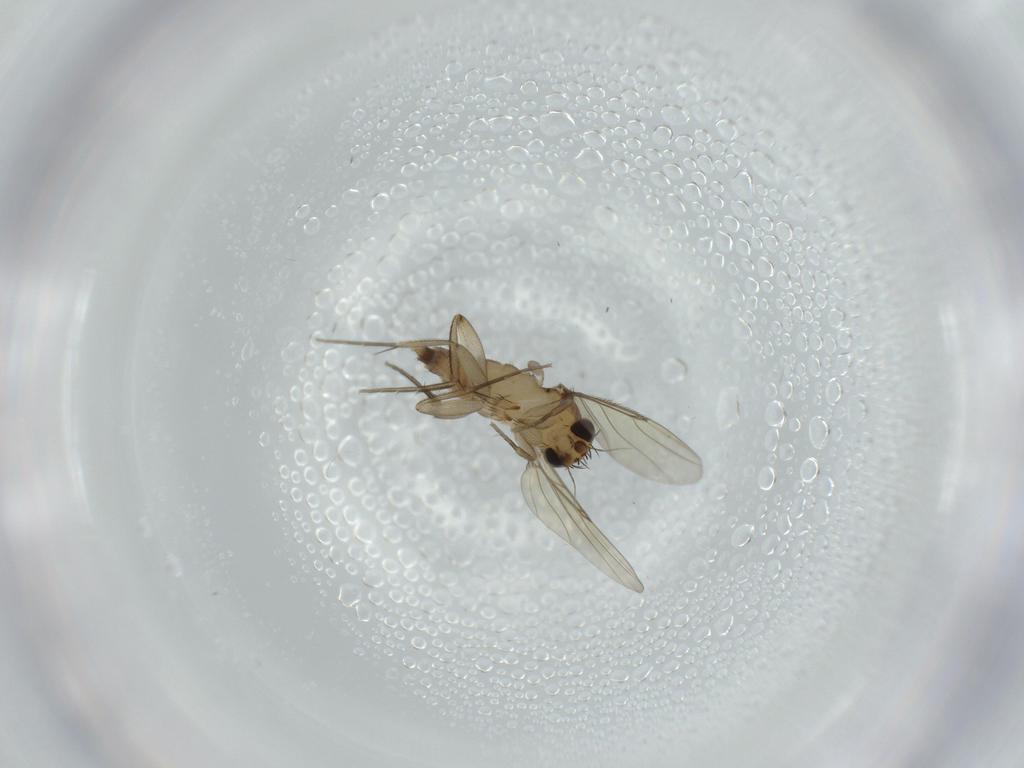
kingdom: Animalia
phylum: Arthropoda
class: Insecta
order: Diptera
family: Phoridae
